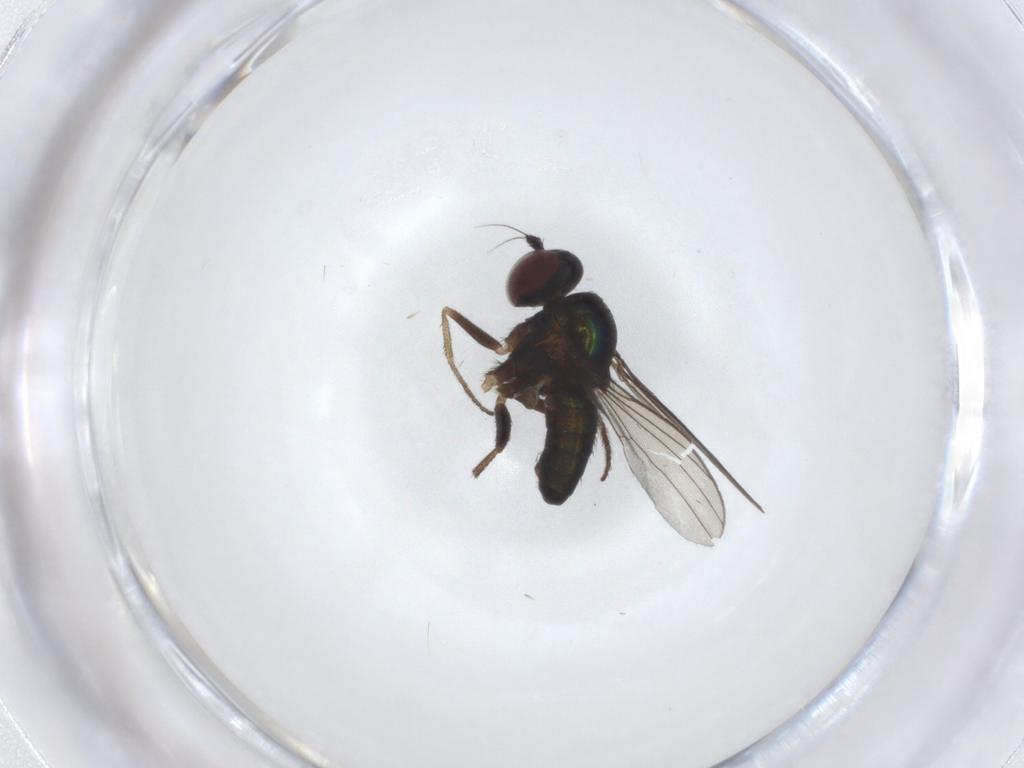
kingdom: Animalia
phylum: Arthropoda
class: Insecta
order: Diptera
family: Dolichopodidae
